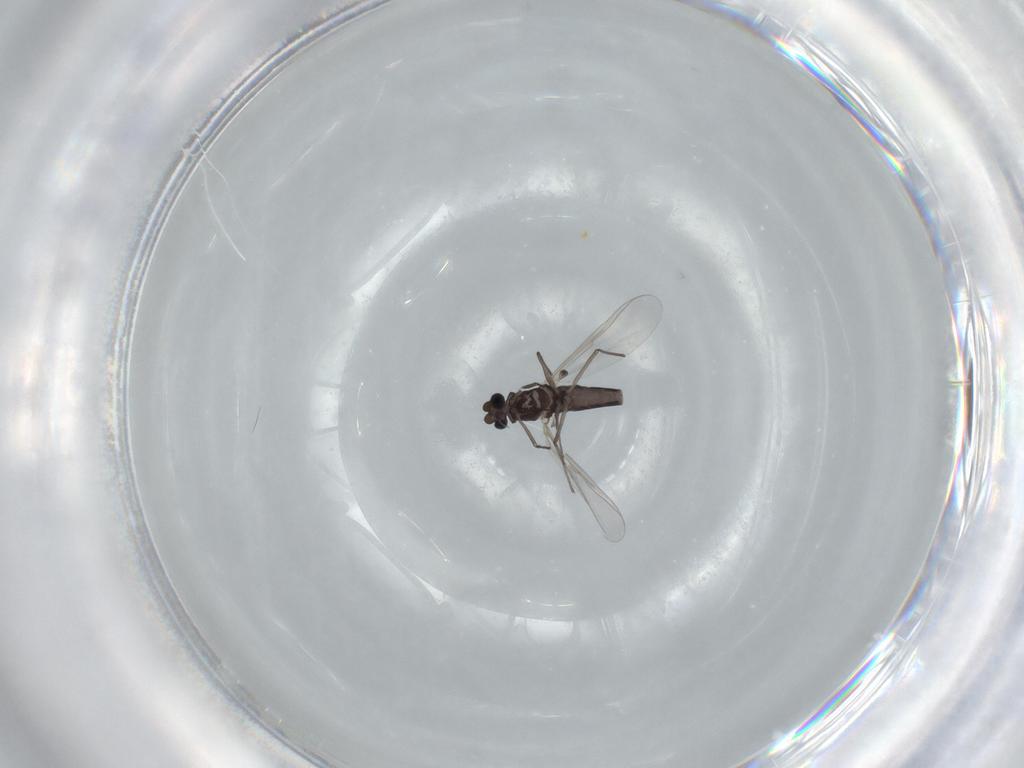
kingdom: Animalia
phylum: Arthropoda
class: Insecta
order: Diptera
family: Chironomidae
